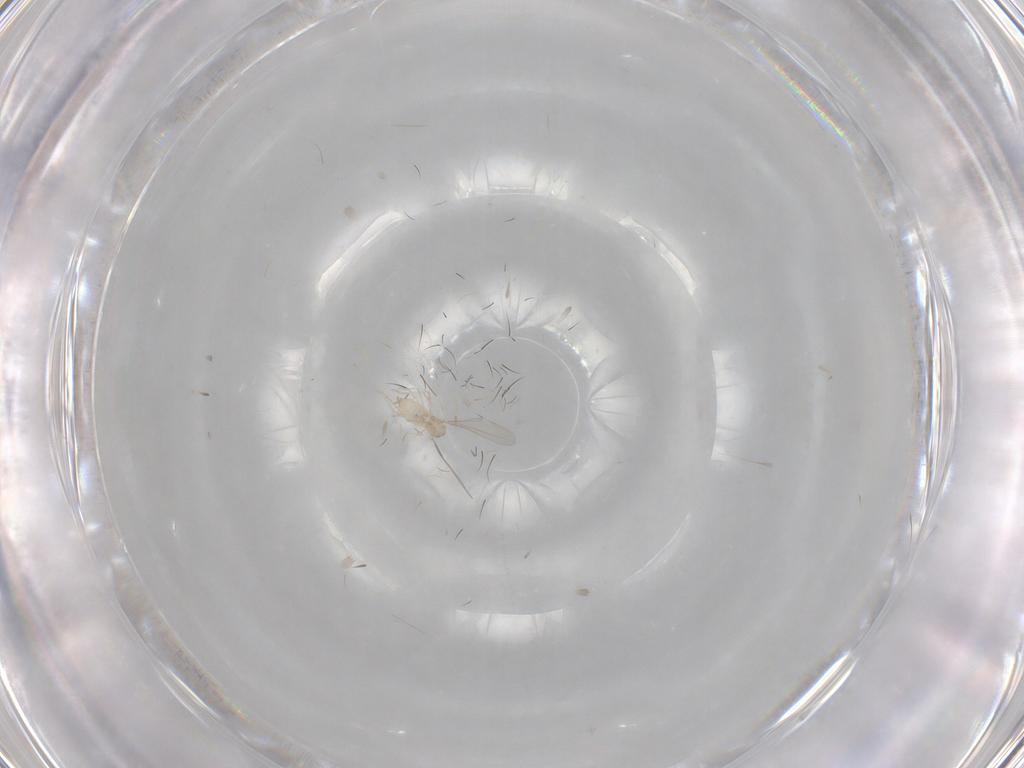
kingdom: Animalia
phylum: Arthropoda
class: Insecta
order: Diptera
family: Cecidomyiidae
